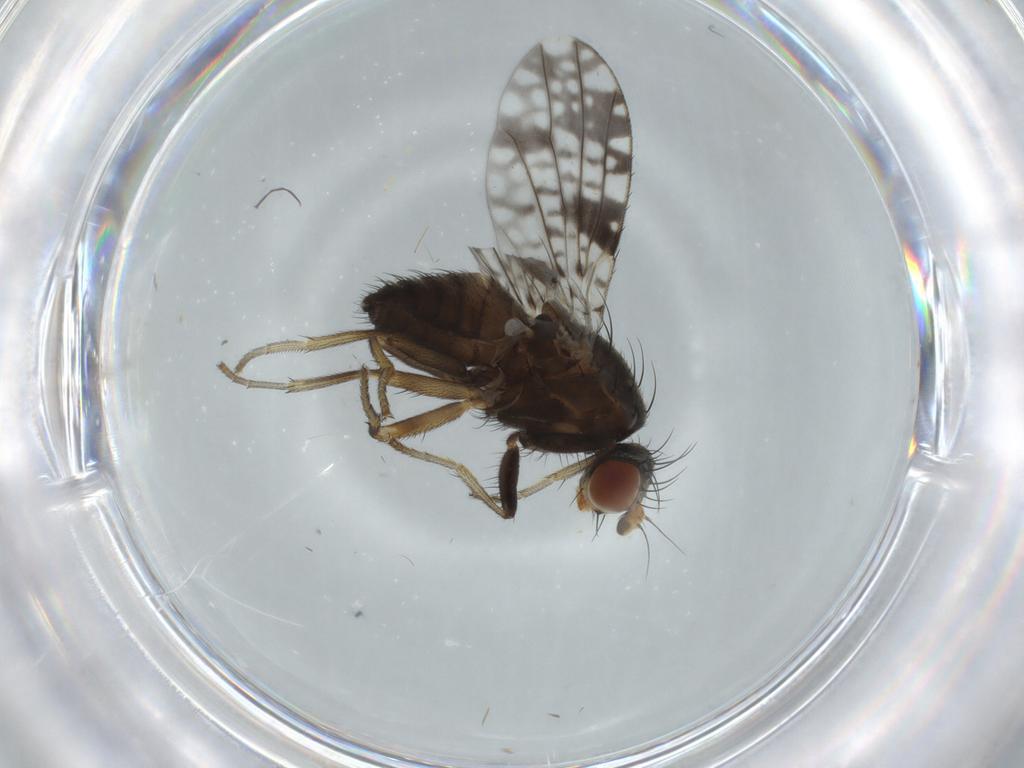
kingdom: Animalia
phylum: Arthropoda
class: Insecta
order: Diptera
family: Tephritidae
